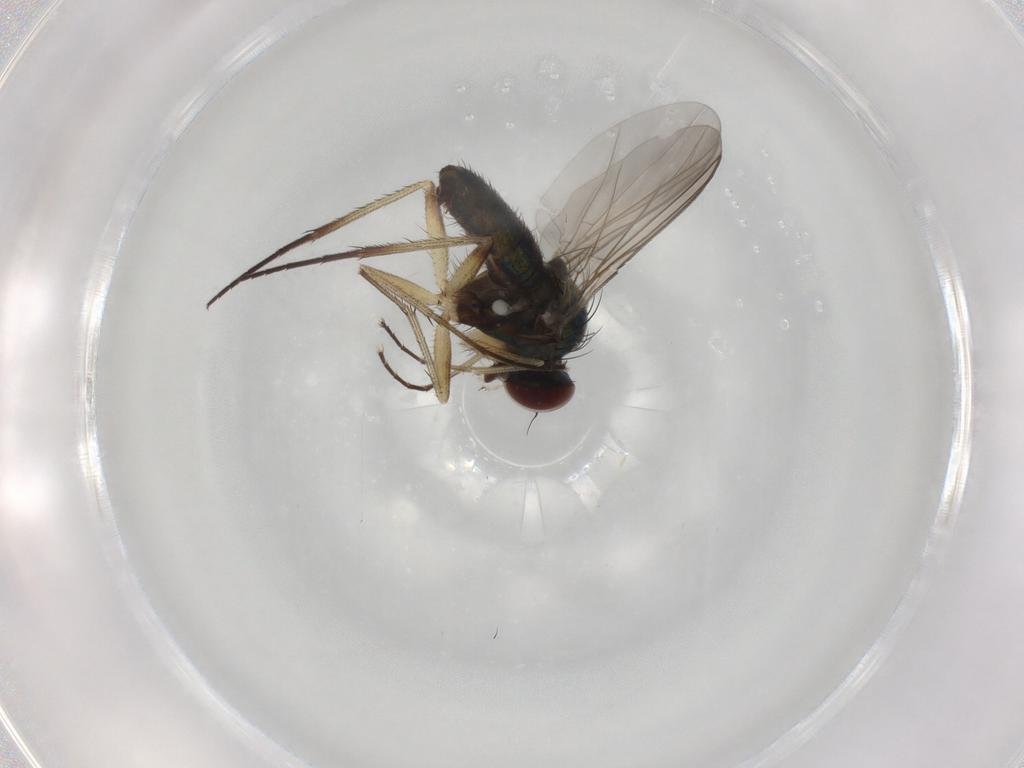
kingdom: Animalia
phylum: Arthropoda
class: Insecta
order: Diptera
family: Dolichopodidae
